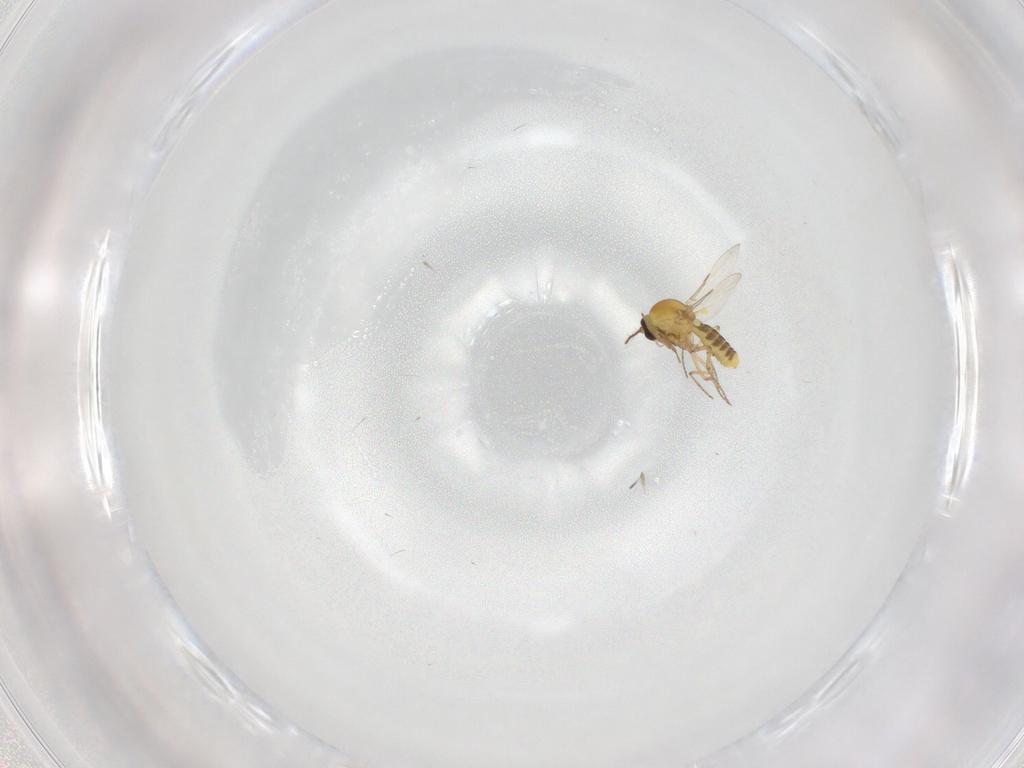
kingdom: Animalia
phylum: Arthropoda
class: Insecta
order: Diptera
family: Ceratopogonidae
